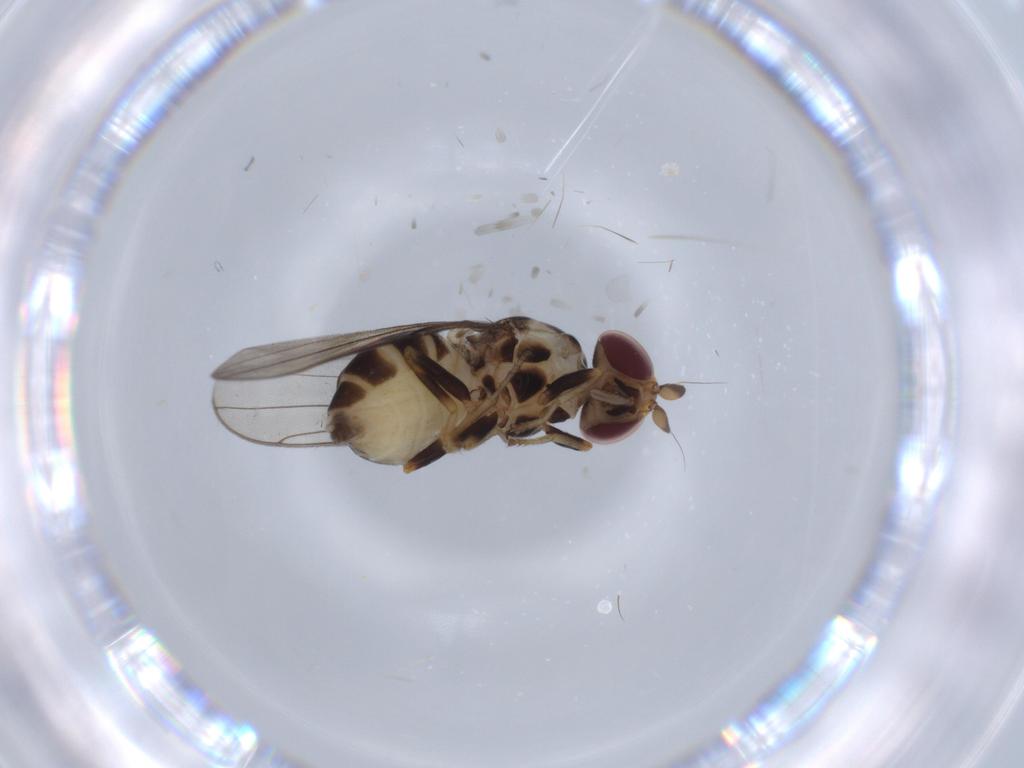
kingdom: Animalia
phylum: Arthropoda
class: Insecta
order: Diptera
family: Chloropidae
